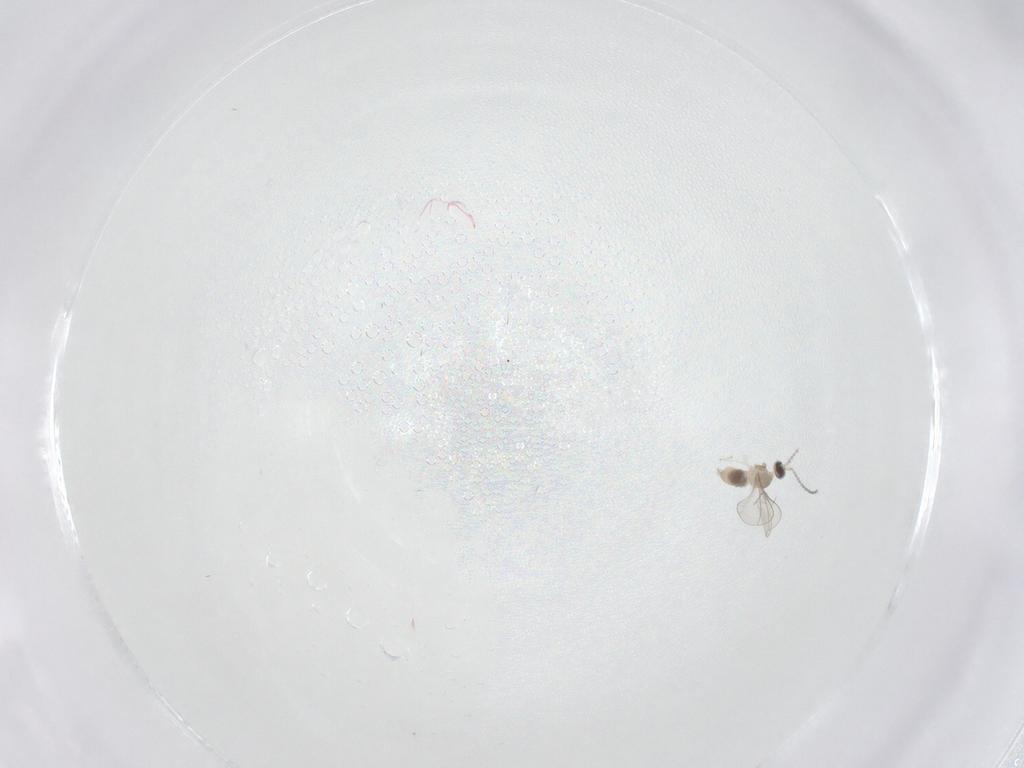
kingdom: Animalia
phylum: Arthropoda
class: Insecta
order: Diptera
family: Cecidomyiidae
